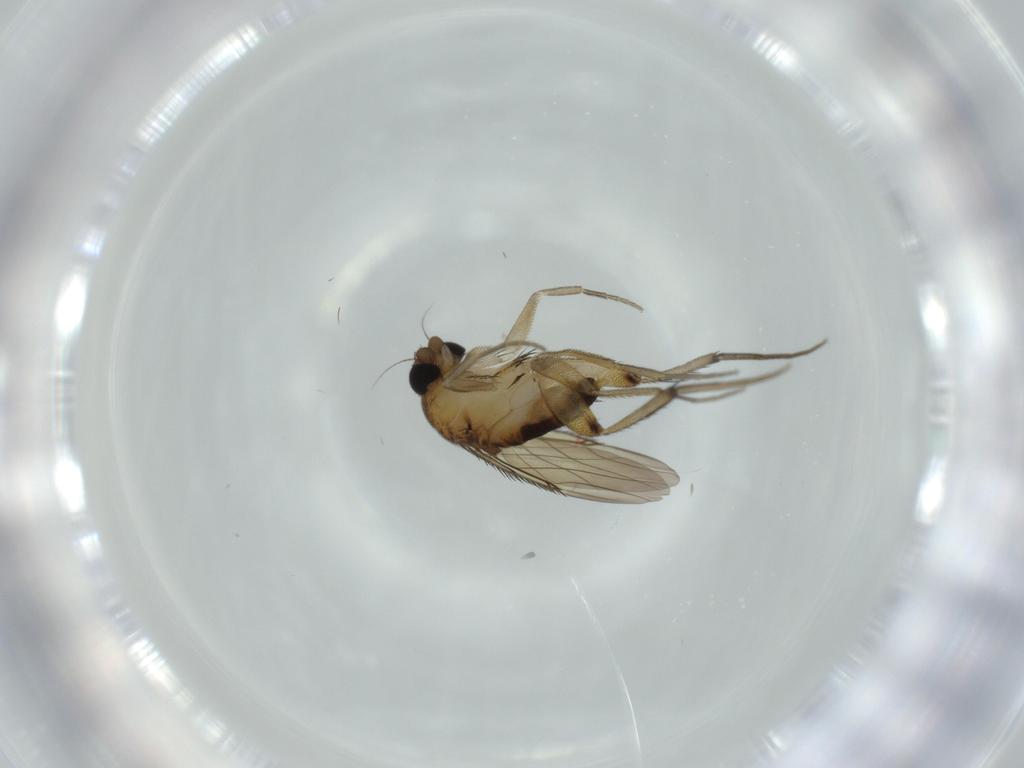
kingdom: Animalia
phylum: Arthropoda
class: Insecta
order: Diptera
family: Phoridae
